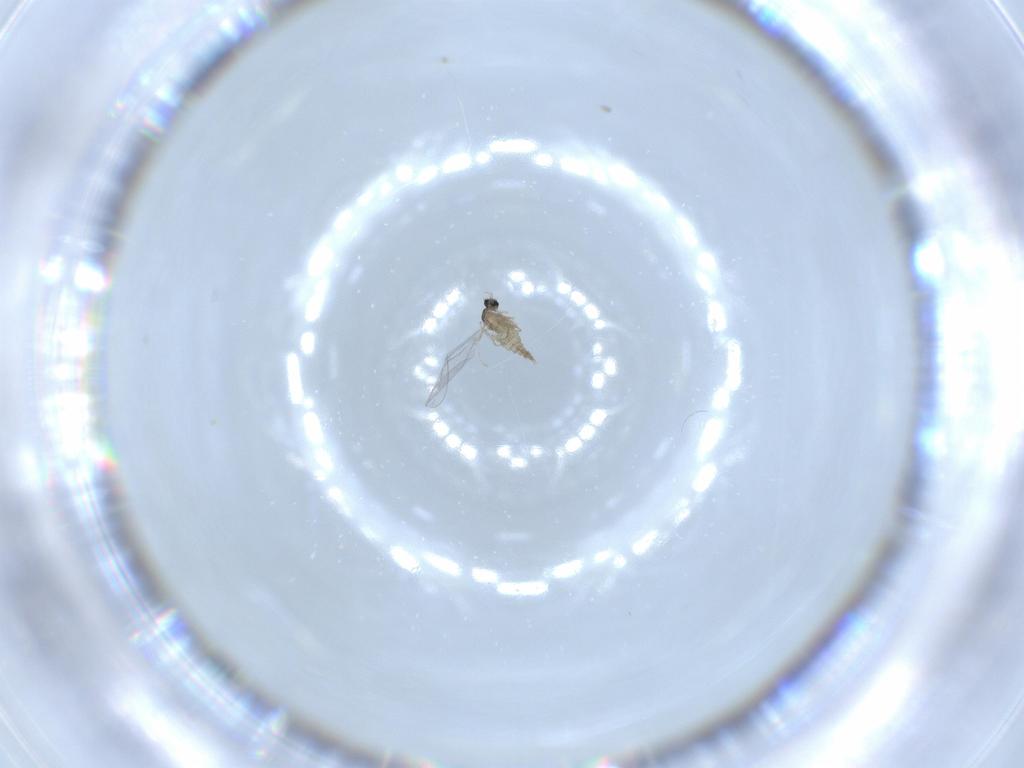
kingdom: Animalia
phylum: Arthropoda
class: Insecta
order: Diptera
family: Cecidomyiidae
